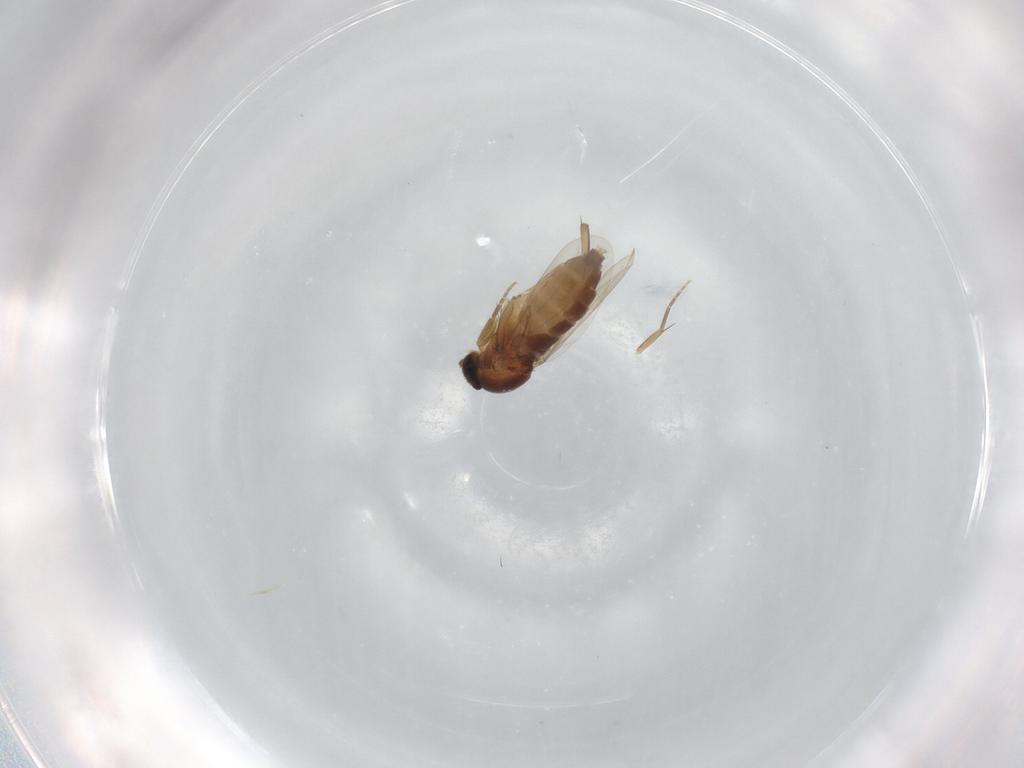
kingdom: Animalia
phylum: Arthropoda
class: Insecta
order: Diptera
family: Phoridae
